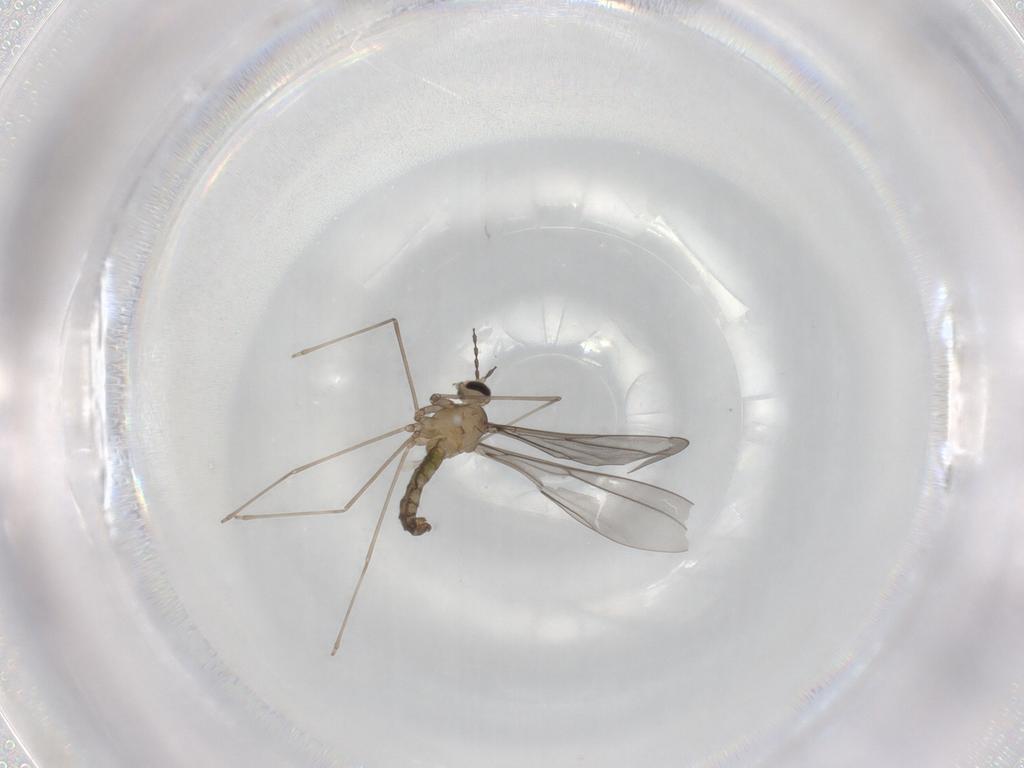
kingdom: Animalia
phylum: Arthropoda
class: Insecta
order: Diptera
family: Cecidomyiidae
